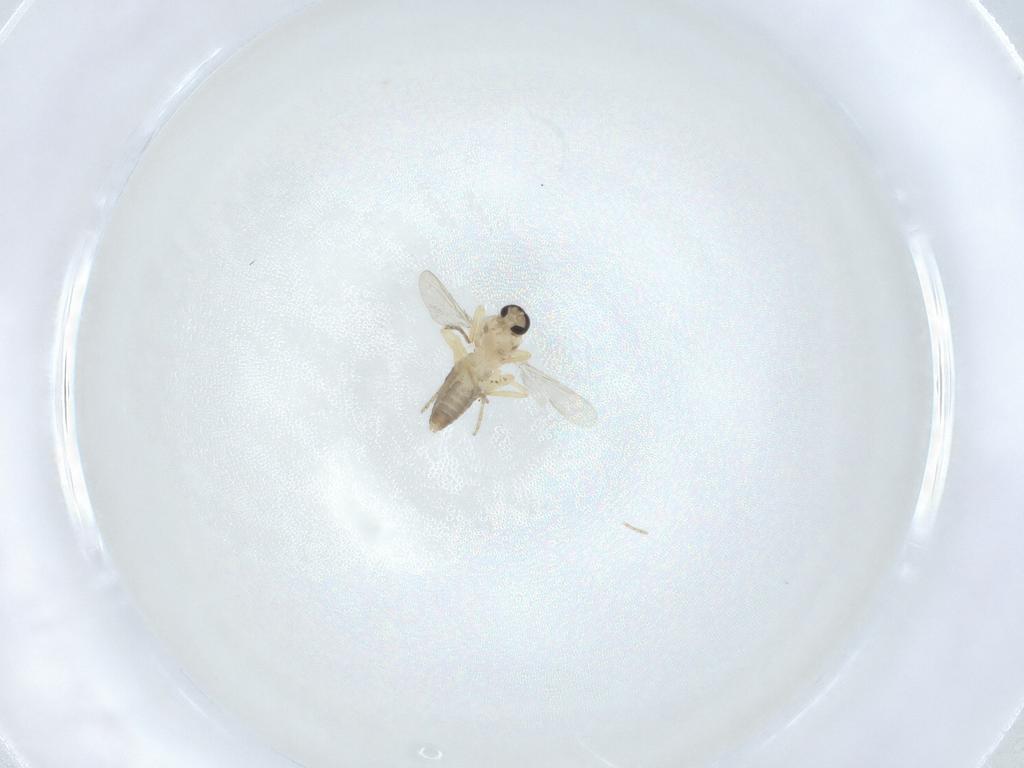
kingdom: Animalia
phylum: Arthropoda
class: Insecta
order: Diptera
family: Ceratopogonidae
